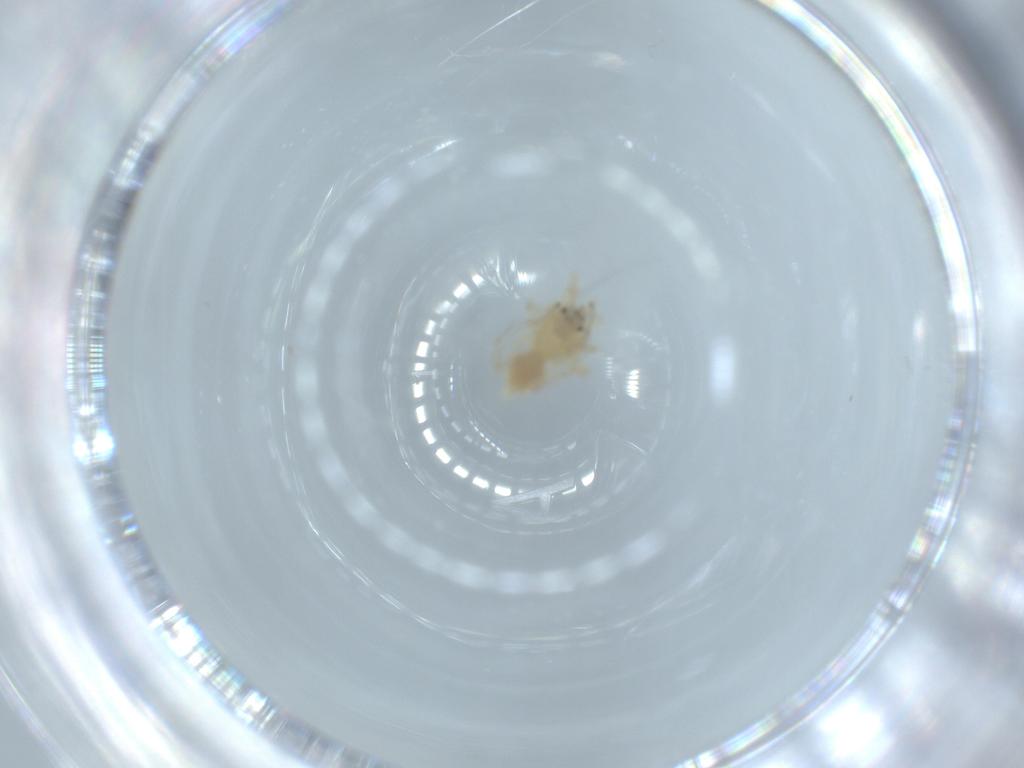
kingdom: Animalia
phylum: Arthropoda
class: Arachnida
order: Araneae
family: Anyphaenidae
